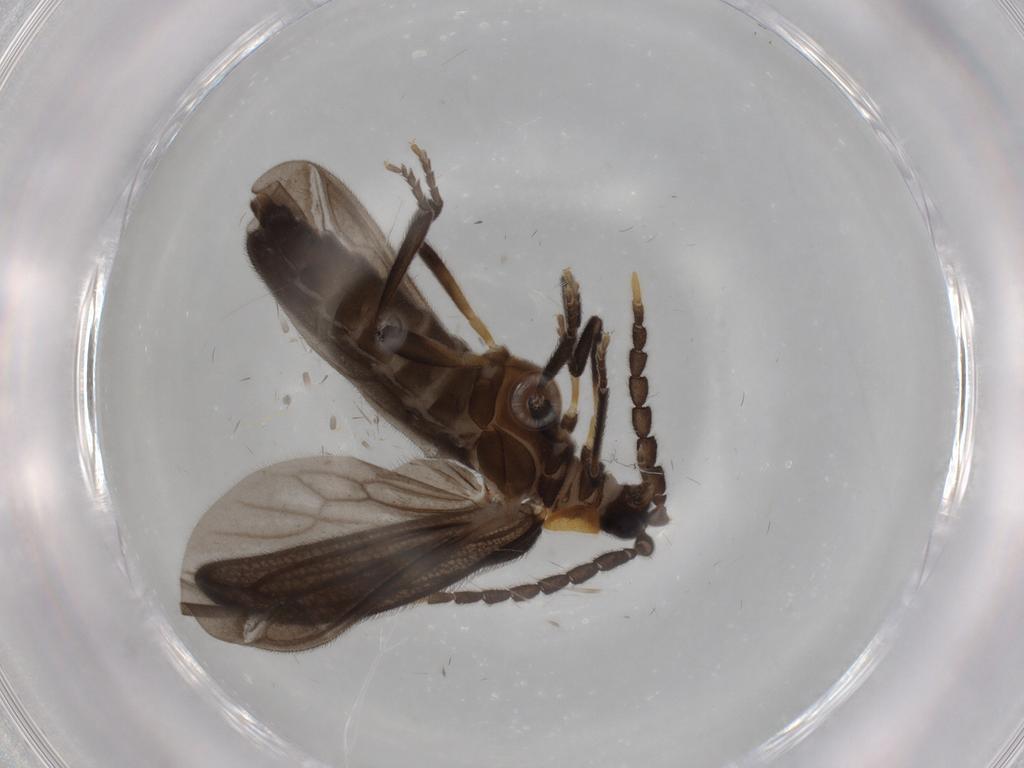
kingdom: Animalia
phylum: Arthropoda
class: Insecta
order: Coleoptera
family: Lycidae
